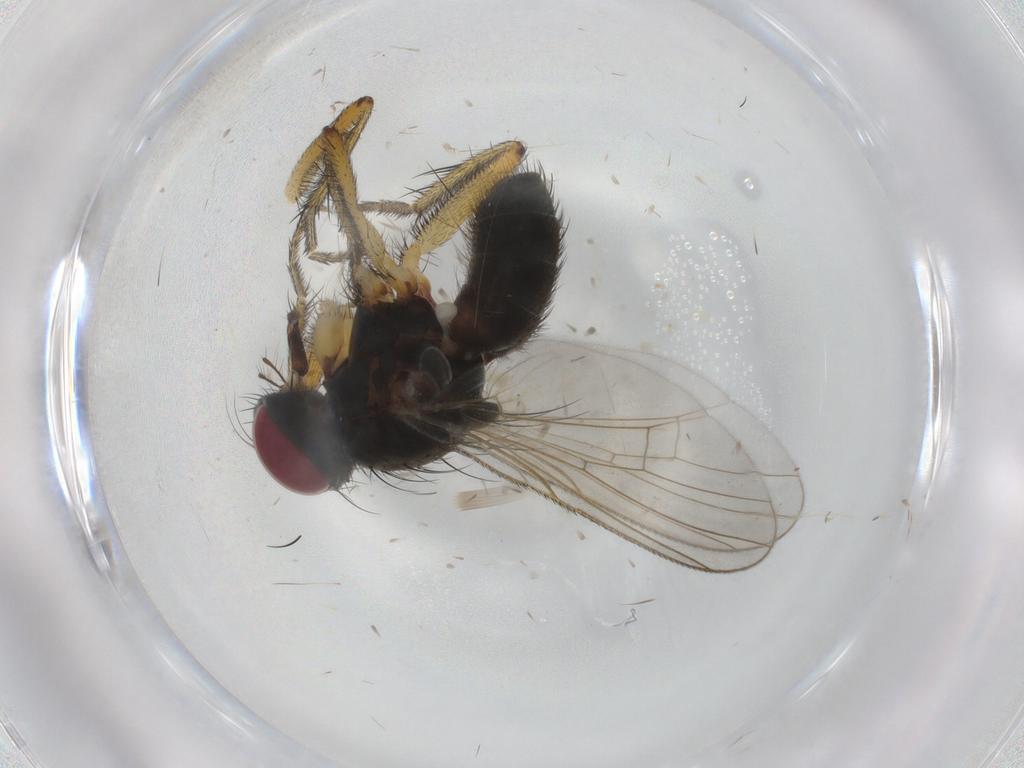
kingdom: Animalia
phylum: Arthropoda
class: Insecta
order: Diptera
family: Muscidae
